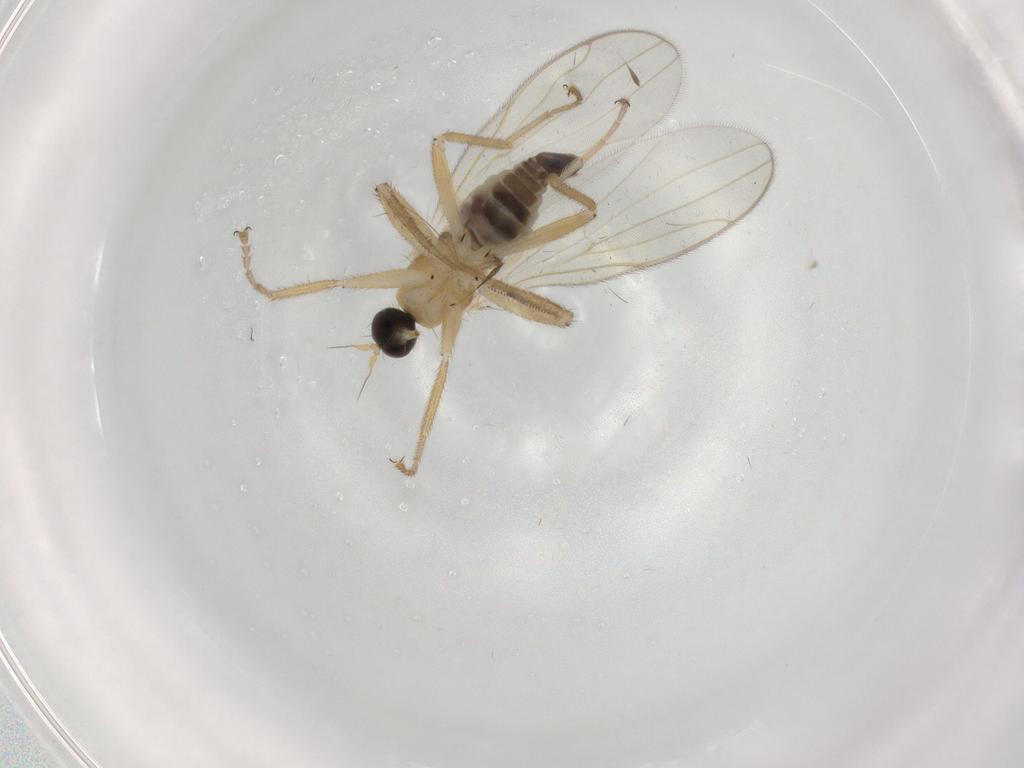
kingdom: Animalia
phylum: Arthropoda
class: Insecta
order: Diptera
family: Hybotidae
